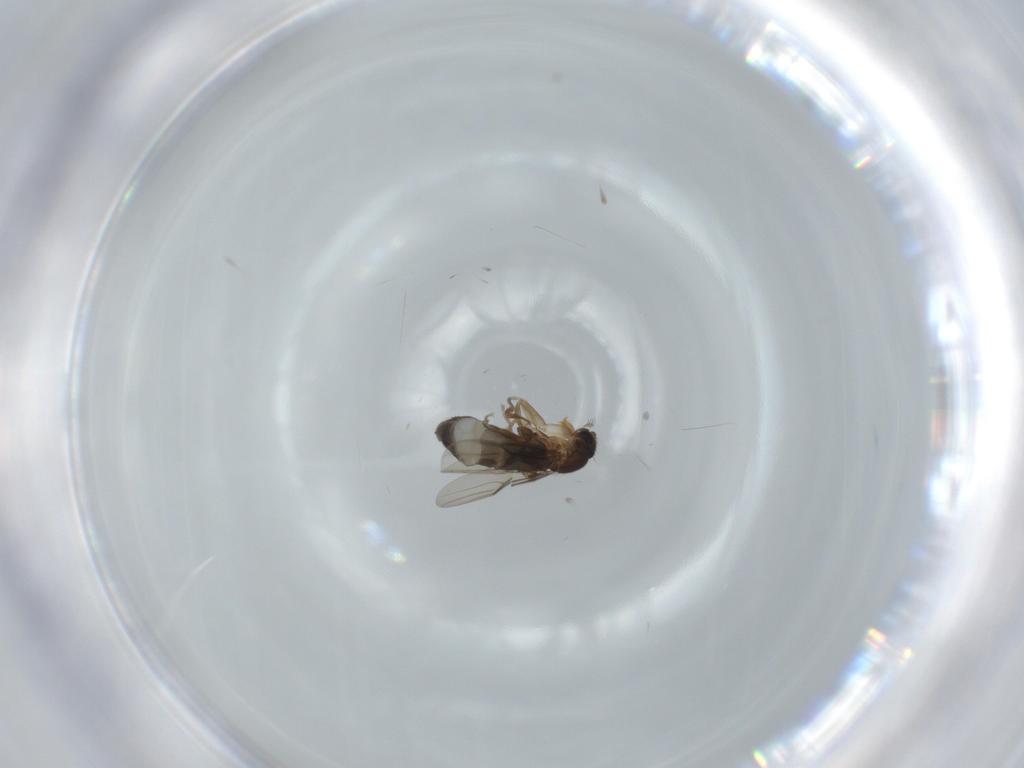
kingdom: Animalia
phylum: Arthropoda
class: Insecta
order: Diptera
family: Phoridae
